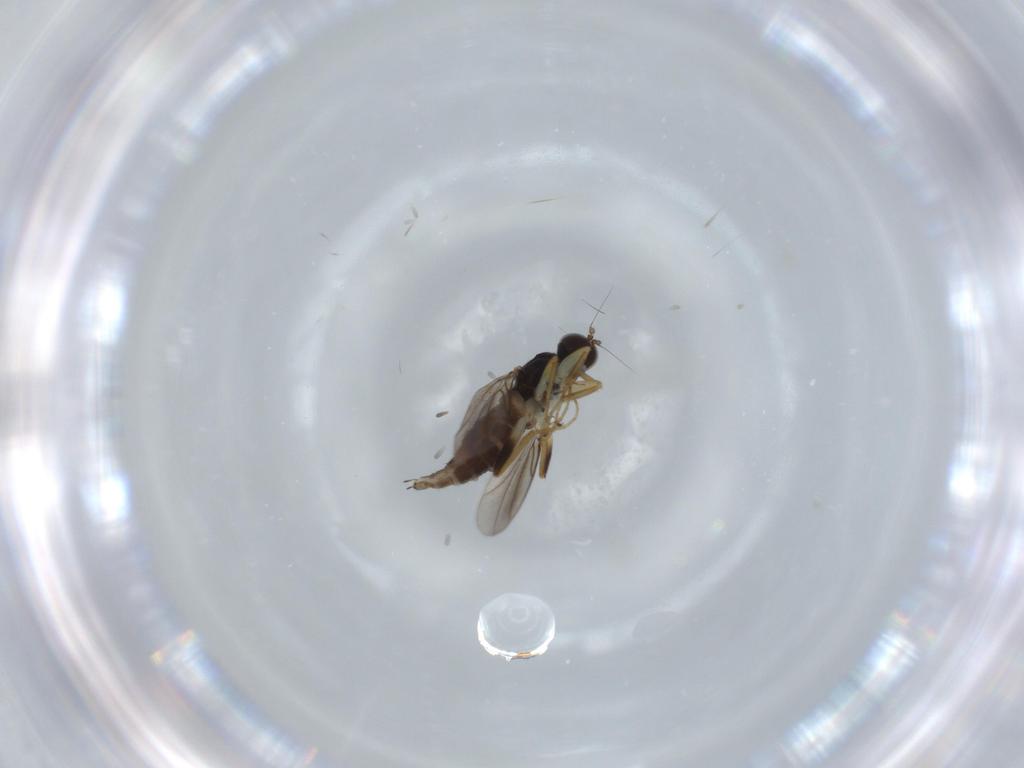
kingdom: Animalia
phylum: Arthropoda
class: Insecta
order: Diptera
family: Hybotidae
